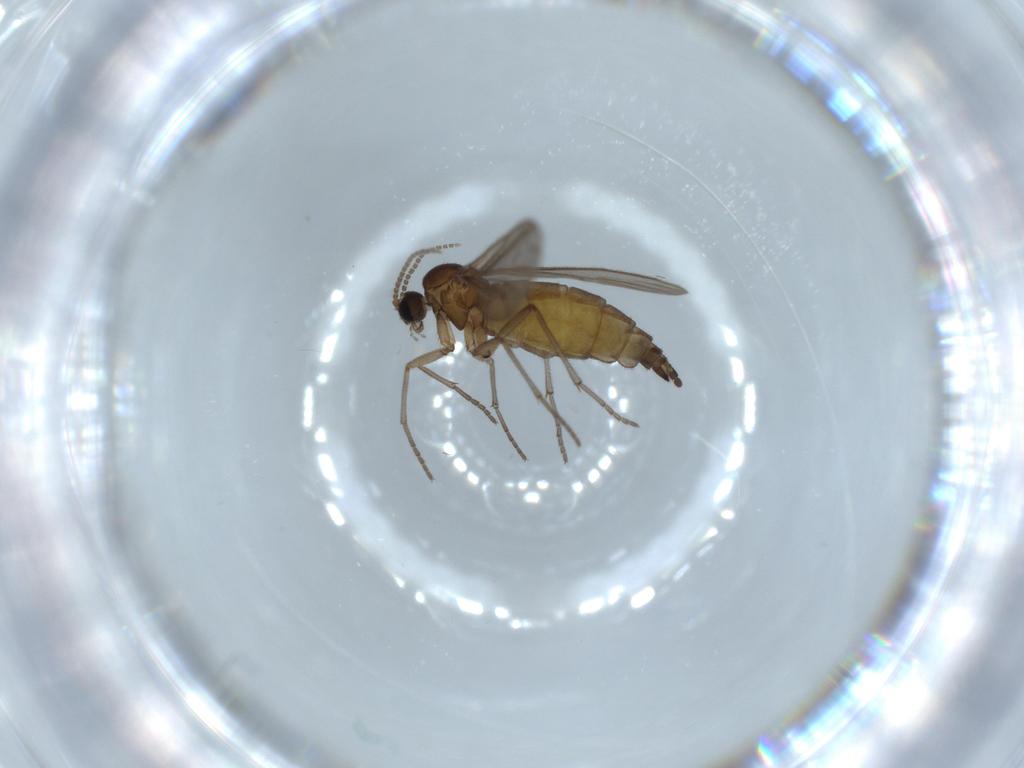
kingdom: Animalia
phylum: Arthropoda
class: Insecta
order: Diptera
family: Sciaridae
